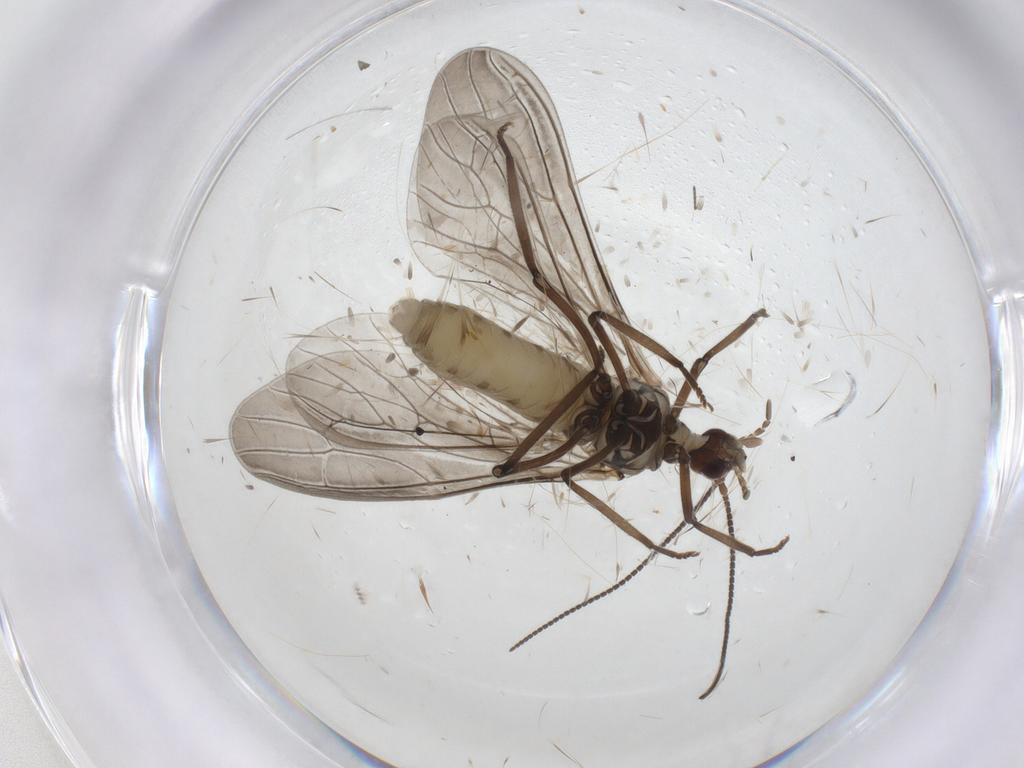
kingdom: Animalia
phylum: Arthropoda
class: Insecta
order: Neuroptera
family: Coniopterygidae
